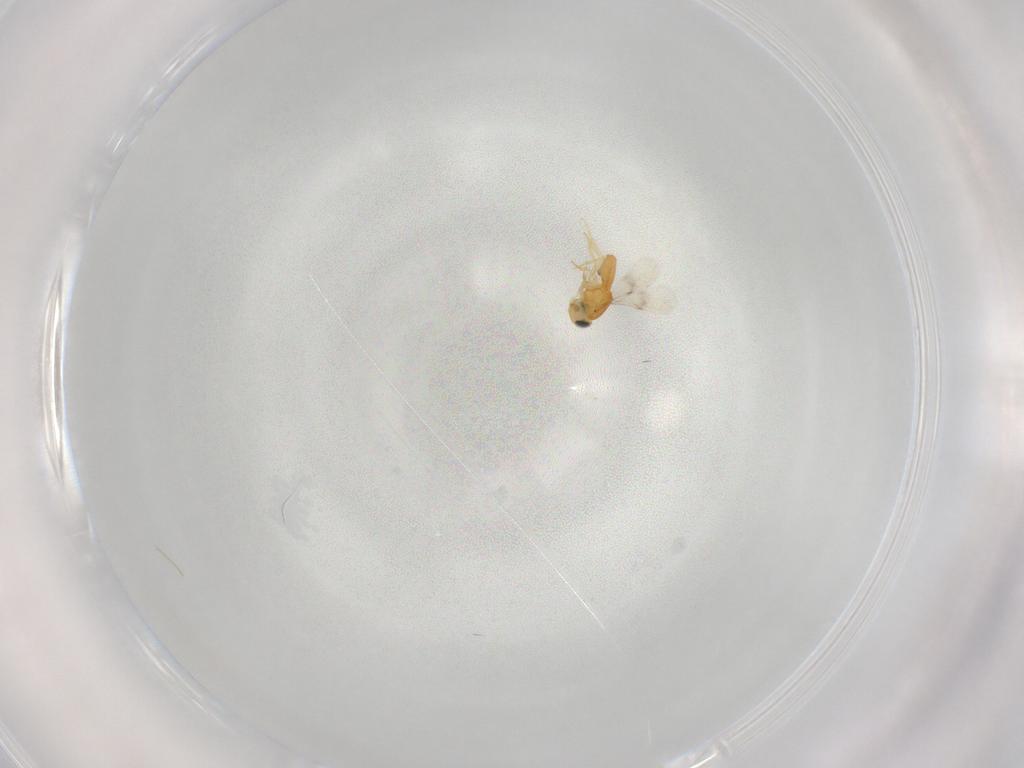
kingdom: Animalia
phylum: Arthropoda
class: Insecta
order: Hymenoptera
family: Scelionidae
